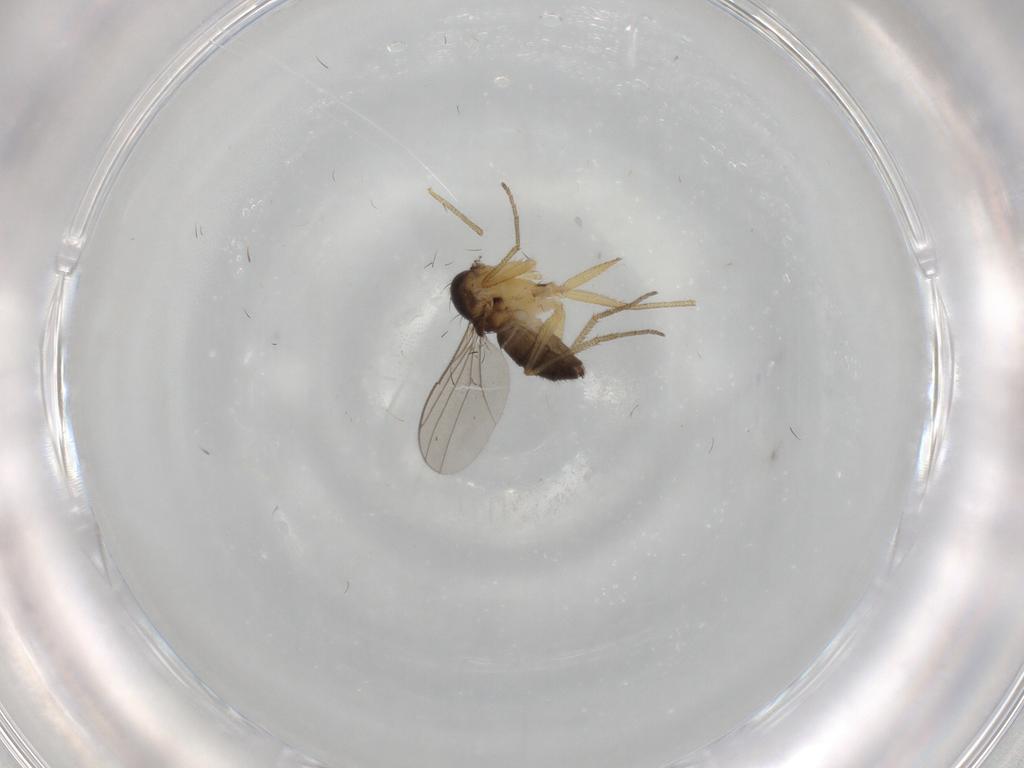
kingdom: Animalia
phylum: Arthropoda
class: Insecta
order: Diptera
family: Dolichopodidae
